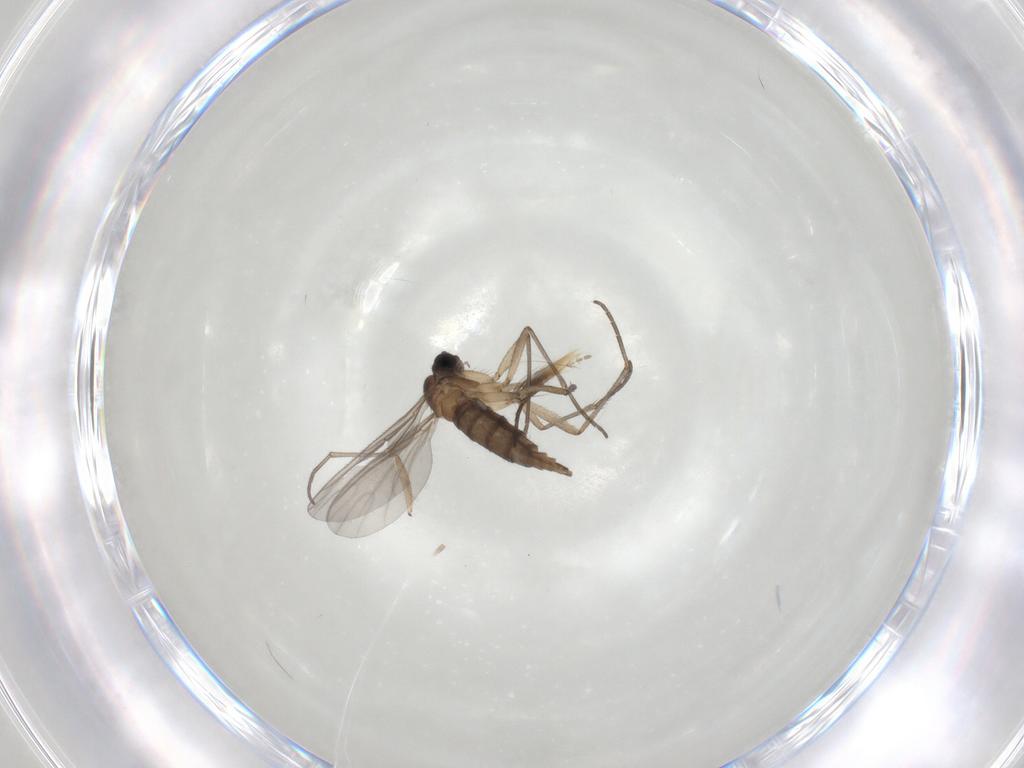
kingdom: Animalia
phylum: Arthropoda
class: Insecta
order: Diptera
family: Sciaridae
